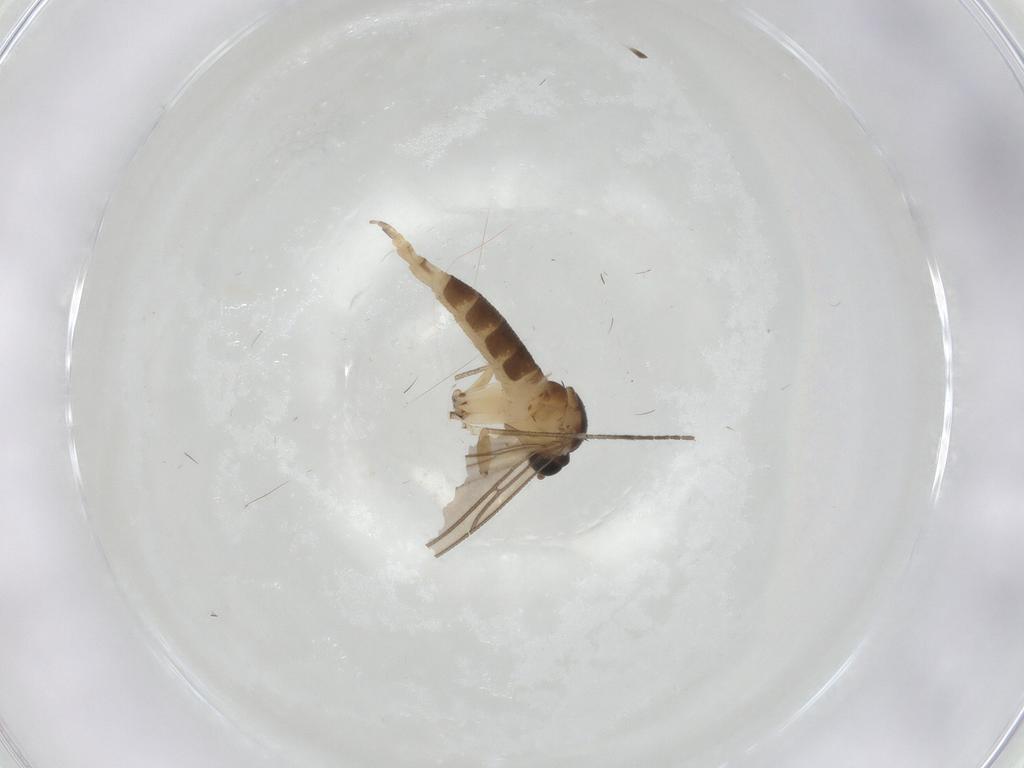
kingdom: Animalia
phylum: Arthropoda
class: Insecta
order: Diptera
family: Sciaridae
